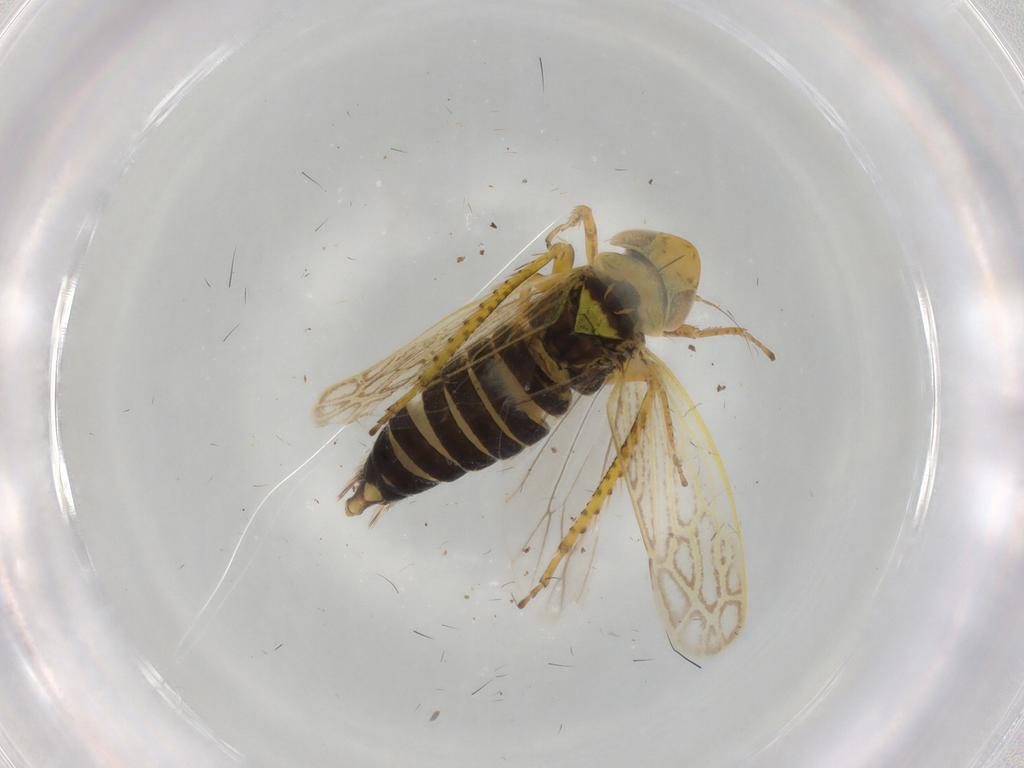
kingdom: Animalia
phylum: Arthropoda
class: Insecta
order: Hemiptera
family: Cicadellidae
